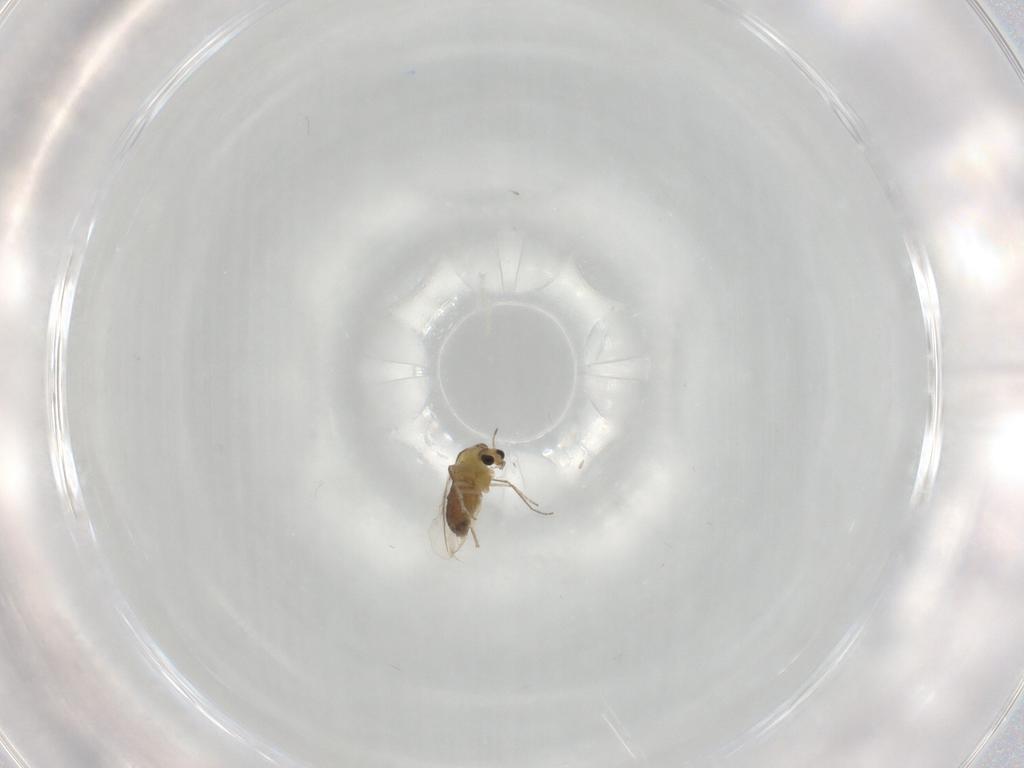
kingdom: Animalia
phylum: Arthropoda
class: Insecta
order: Diptera
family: Chironomidae
